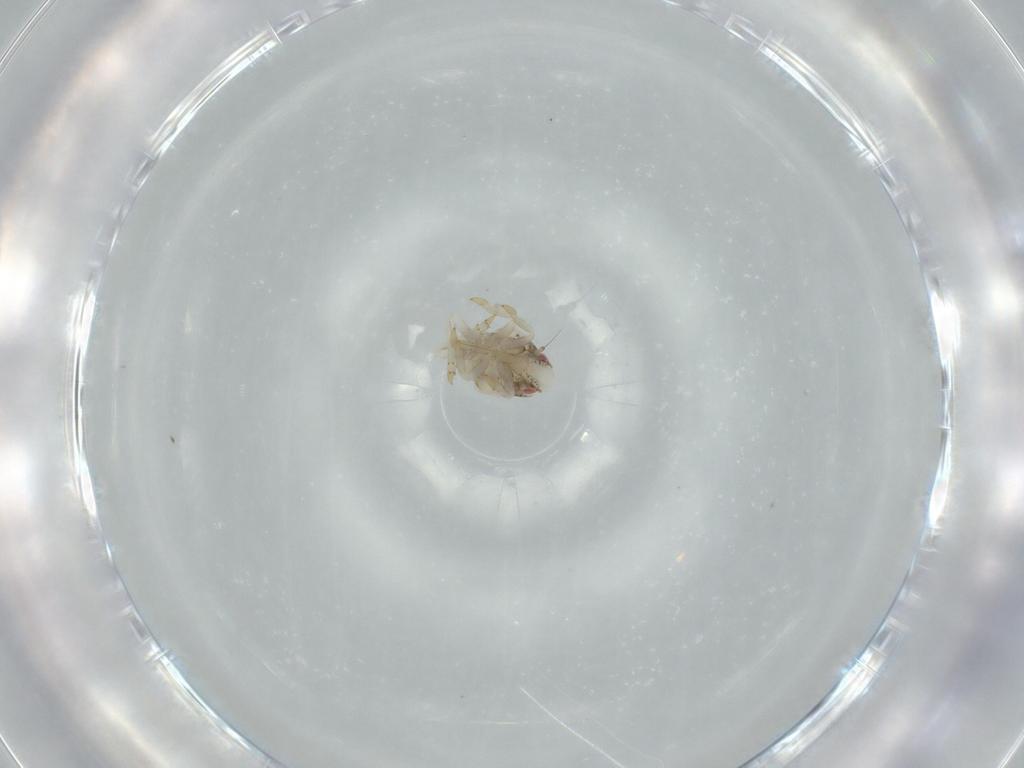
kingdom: Animalia
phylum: Arthropoda
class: Insecta
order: Hemiptera
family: Acanaloniidae
